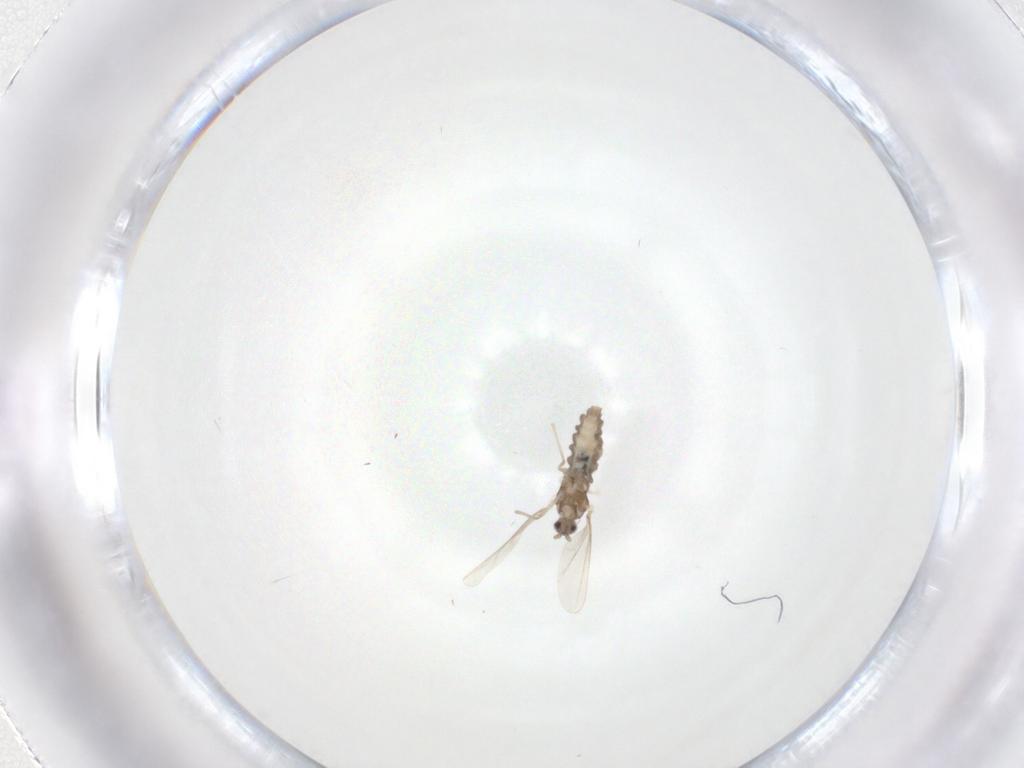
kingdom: Animalia
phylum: Arthropoda
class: Insecta
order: Diptera
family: Cecidomyiidae
